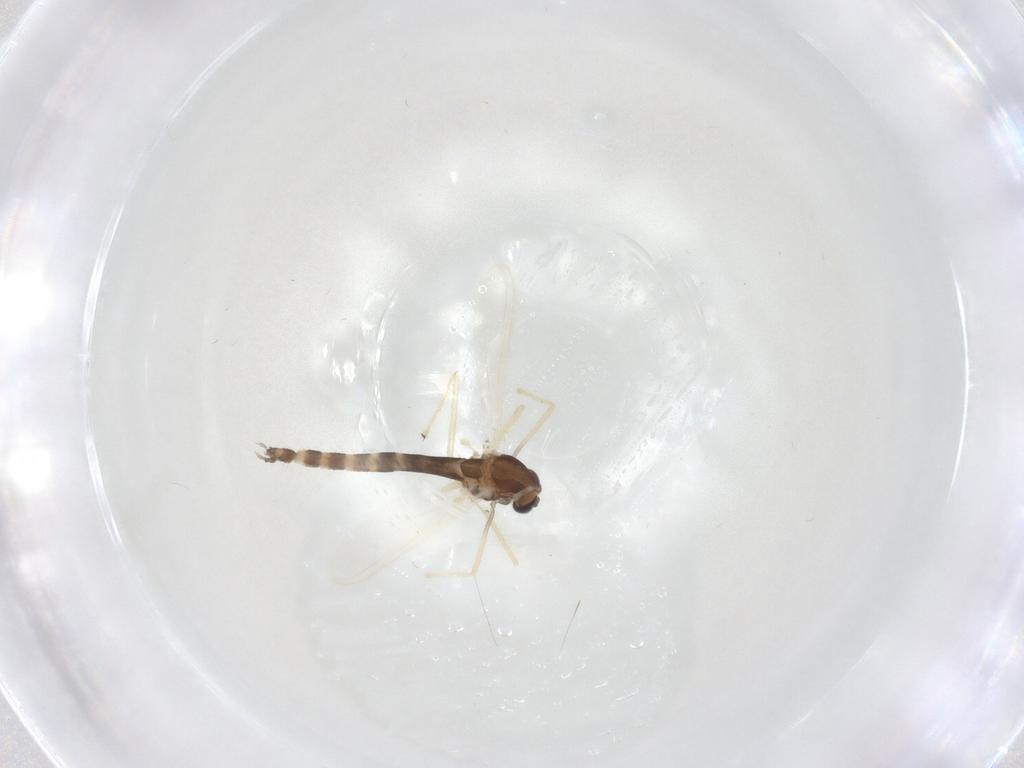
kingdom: Animalia
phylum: Arthropoda
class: Insecta
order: Diptera
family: Chironomidae
